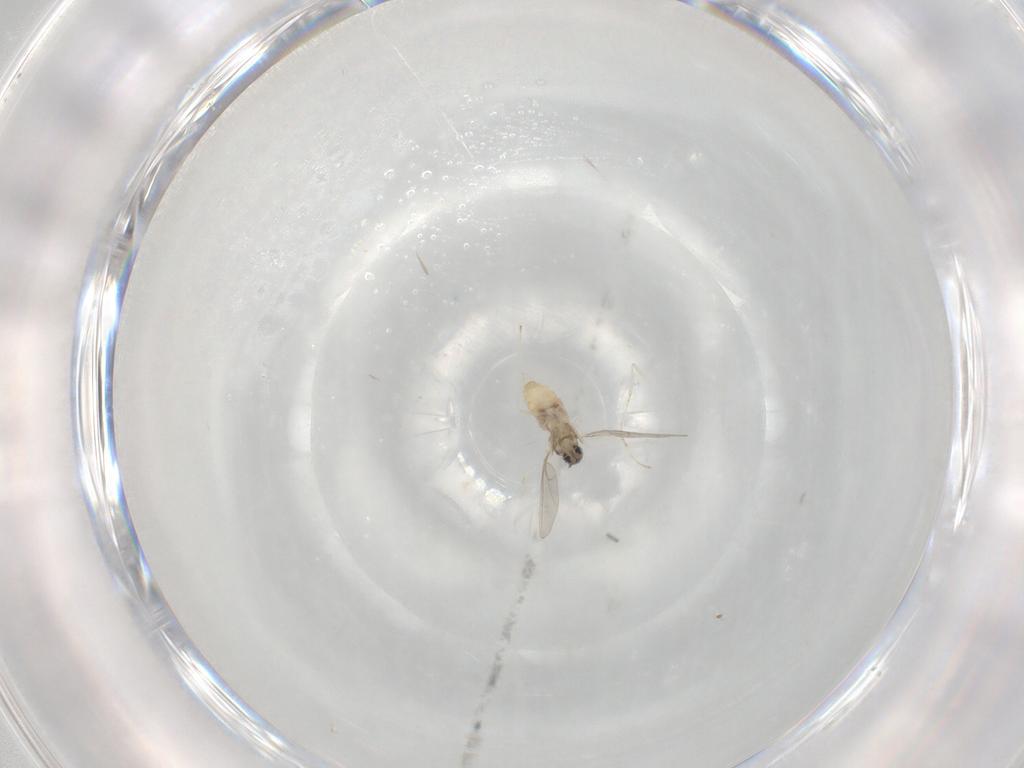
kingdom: Animalia
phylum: Arthropoda
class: Insecta
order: Diptera
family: Cecidomyiidae
